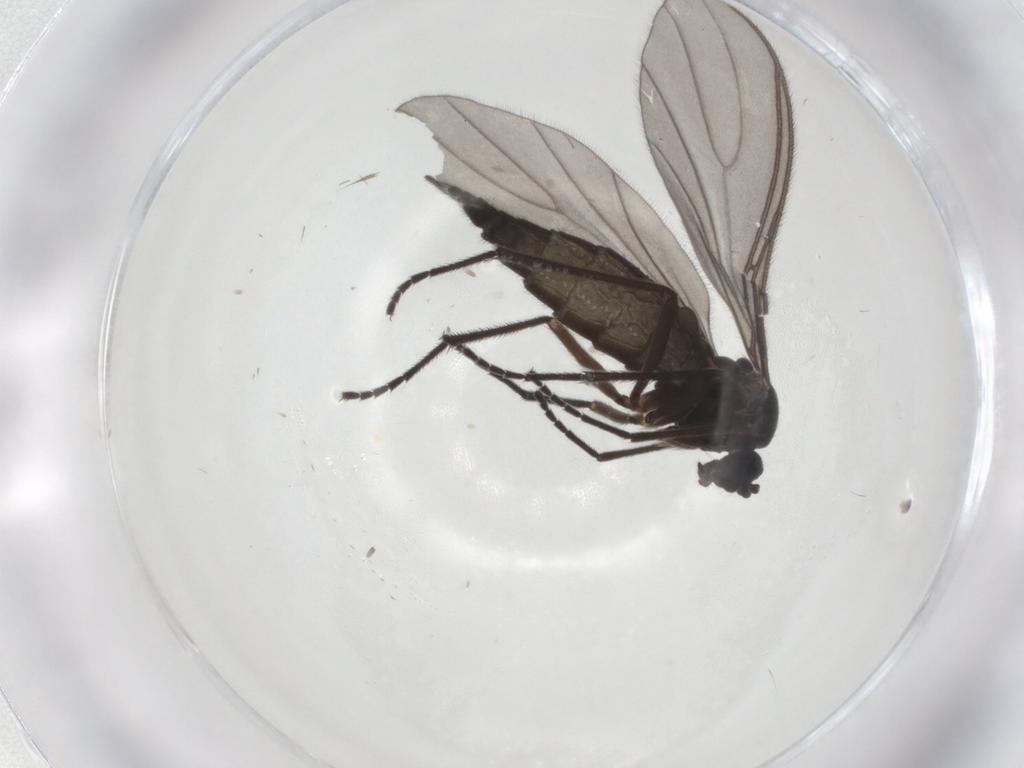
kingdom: Animalia
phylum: Arthropoda
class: Insecta
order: Diptera
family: Sciaridae
